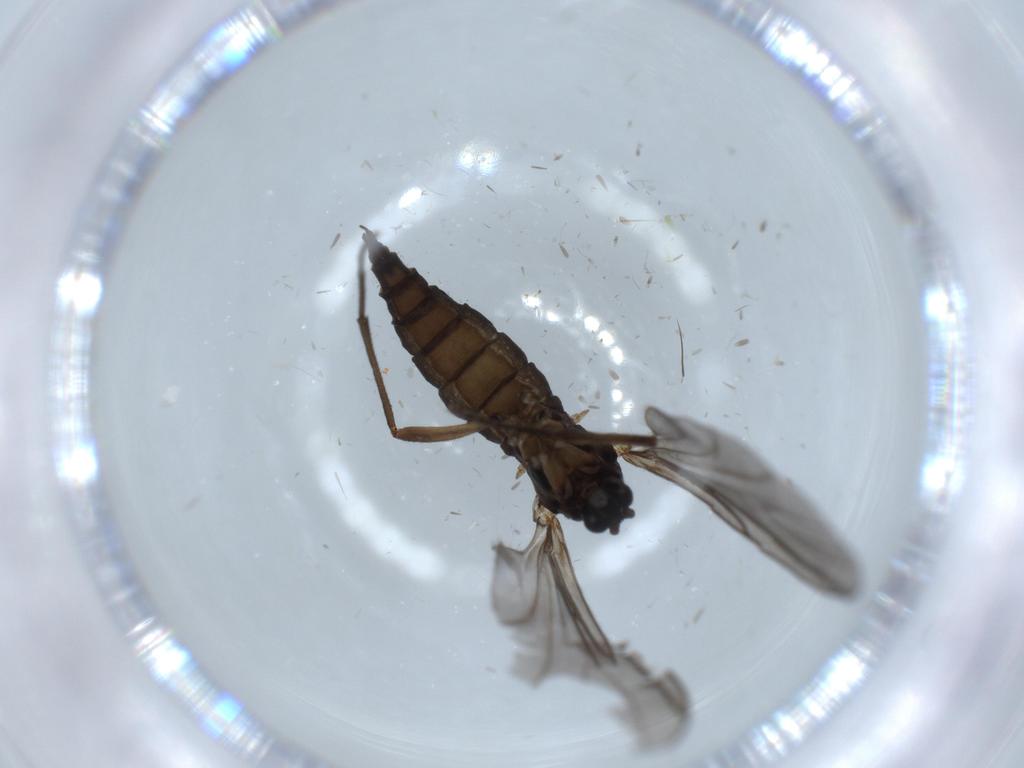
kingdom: Animalia
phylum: Arthropoda
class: Insecta
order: Diptera
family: Sciaridae
